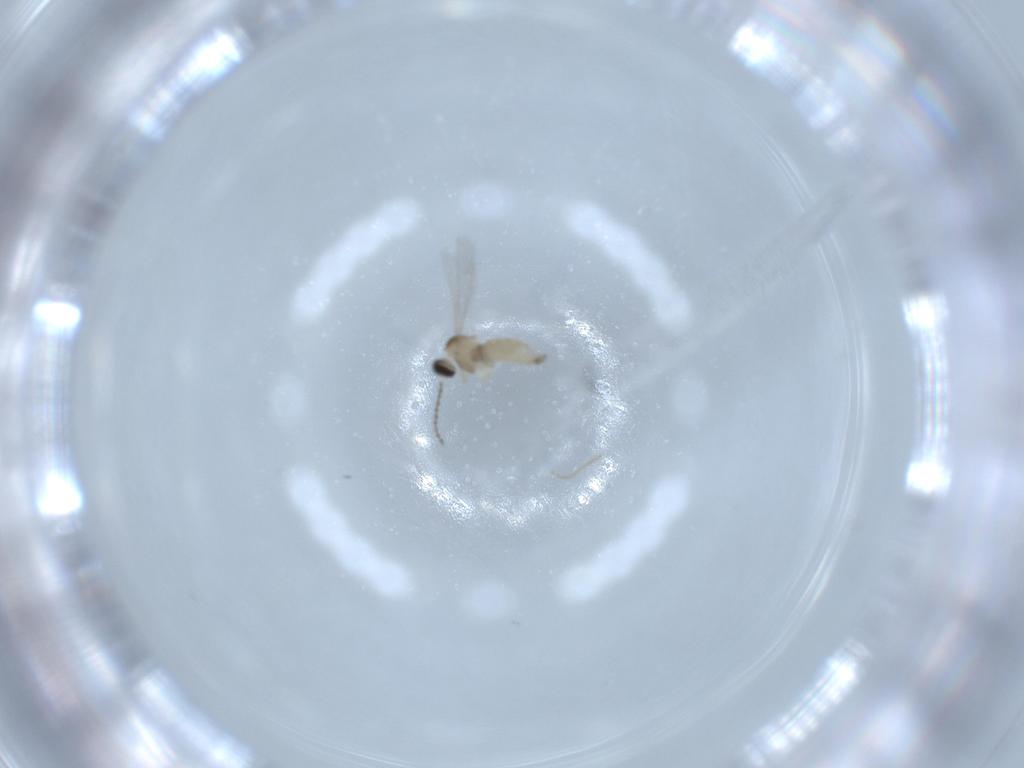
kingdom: Animalia
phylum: Arthropoda
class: Insecta
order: Diptera
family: Cecidomyiidae
